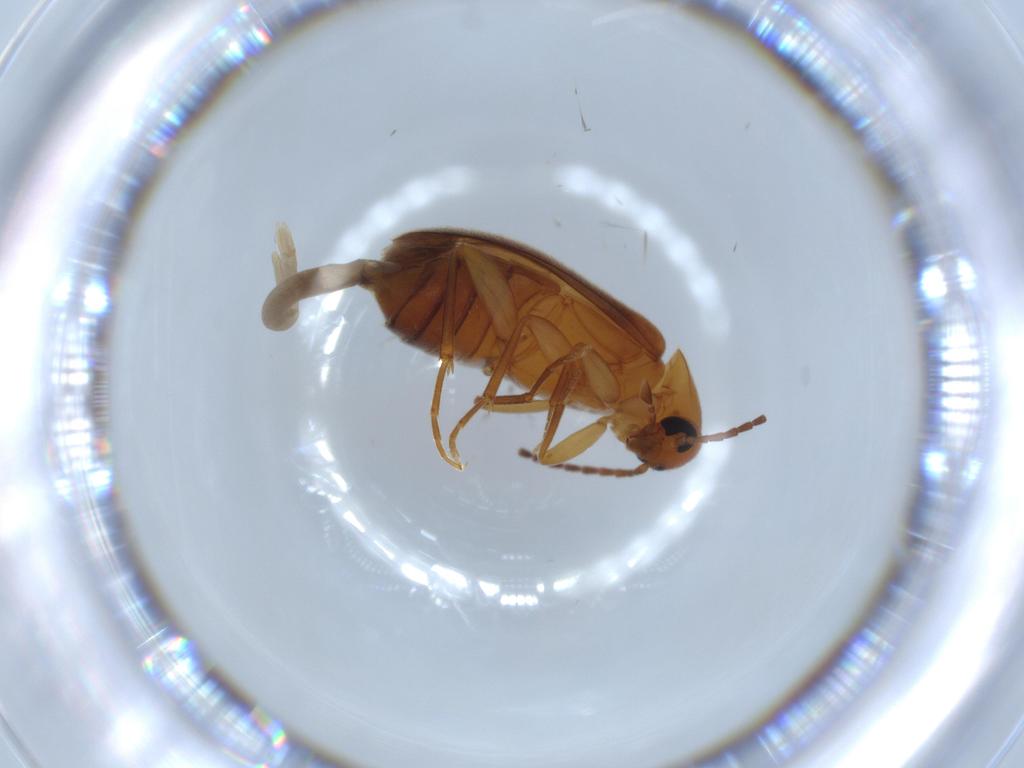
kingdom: Animalia
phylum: Arthropoda
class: Insecta
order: Coleoptera
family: Scraptiidae
